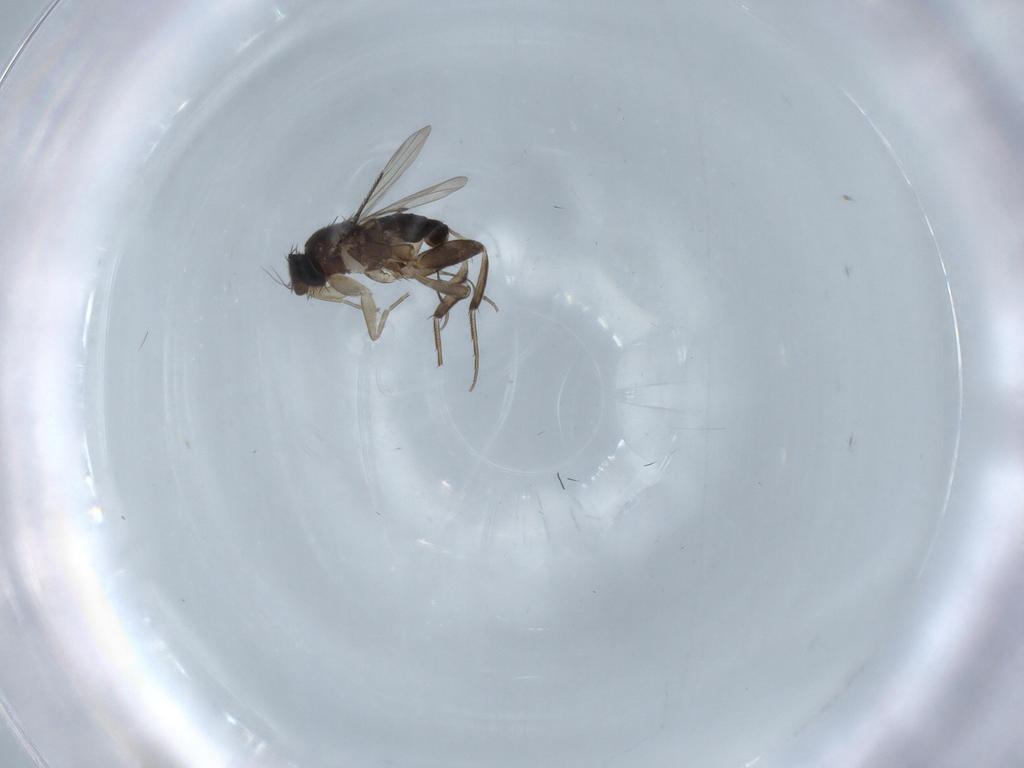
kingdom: Animalia
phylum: Arthropoda
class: Insecta
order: Diptera
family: Phoridae
